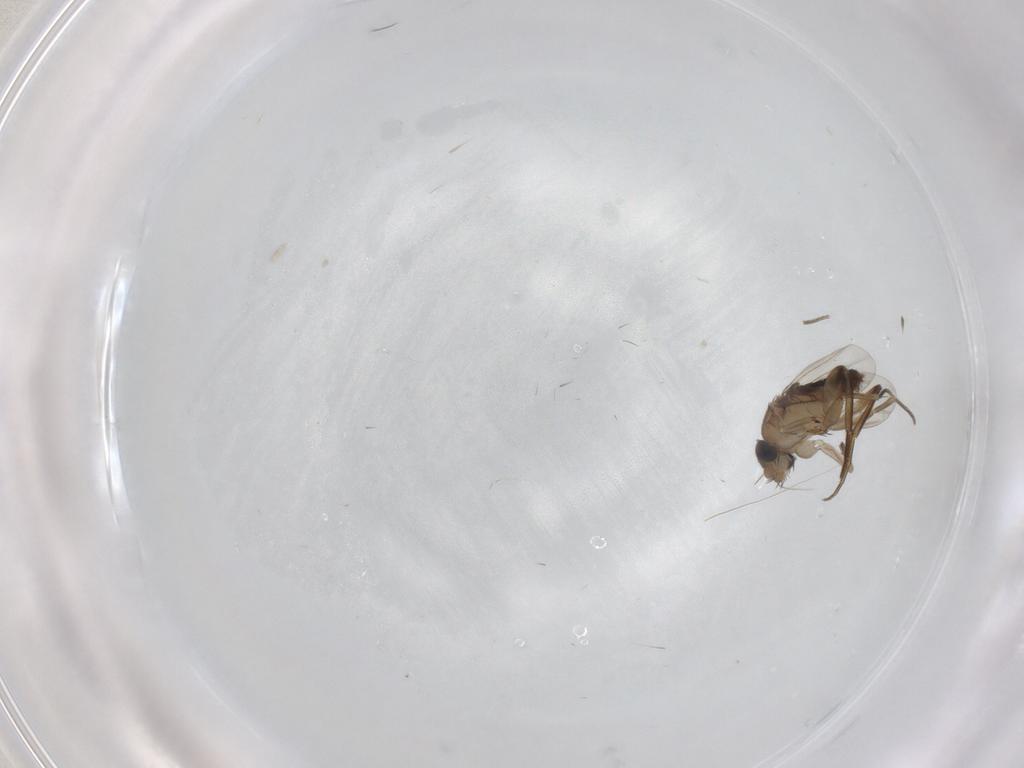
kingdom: Animalia
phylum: Arthropoda
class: Insecta
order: Diptera
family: Phoridae
